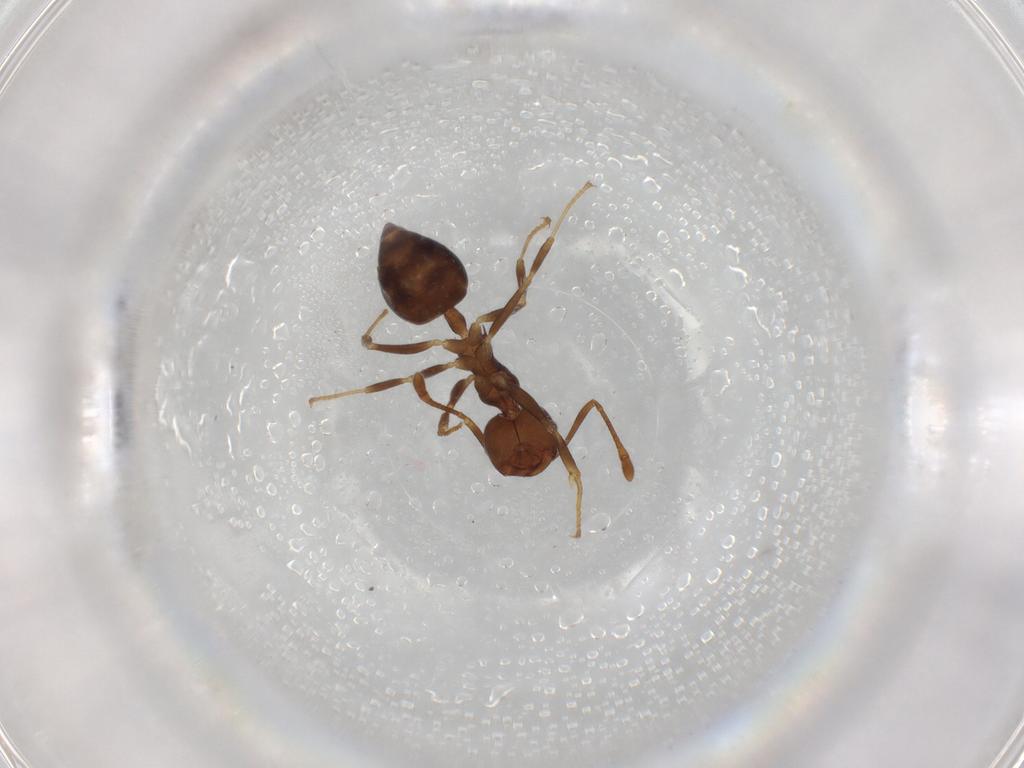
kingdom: Animalia
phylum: Arthropoda
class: Insecta
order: Hymenoptera
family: Formicidae
